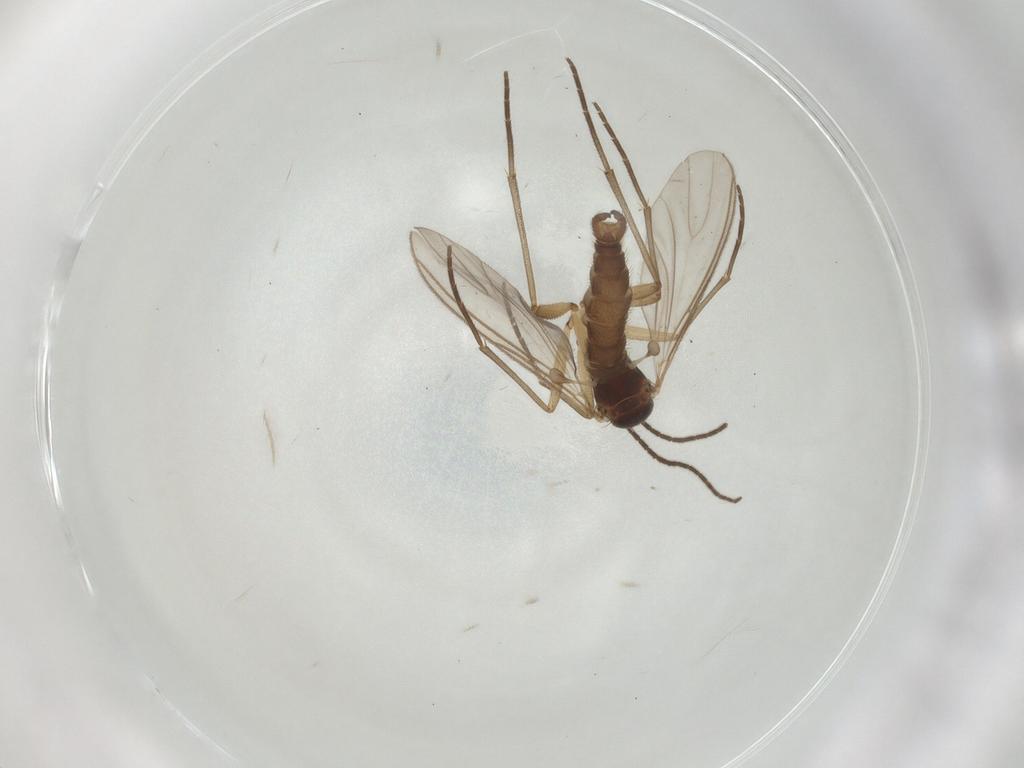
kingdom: Animalia
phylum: Arthropoda
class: Insecta
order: Diptera
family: Sciaridae
